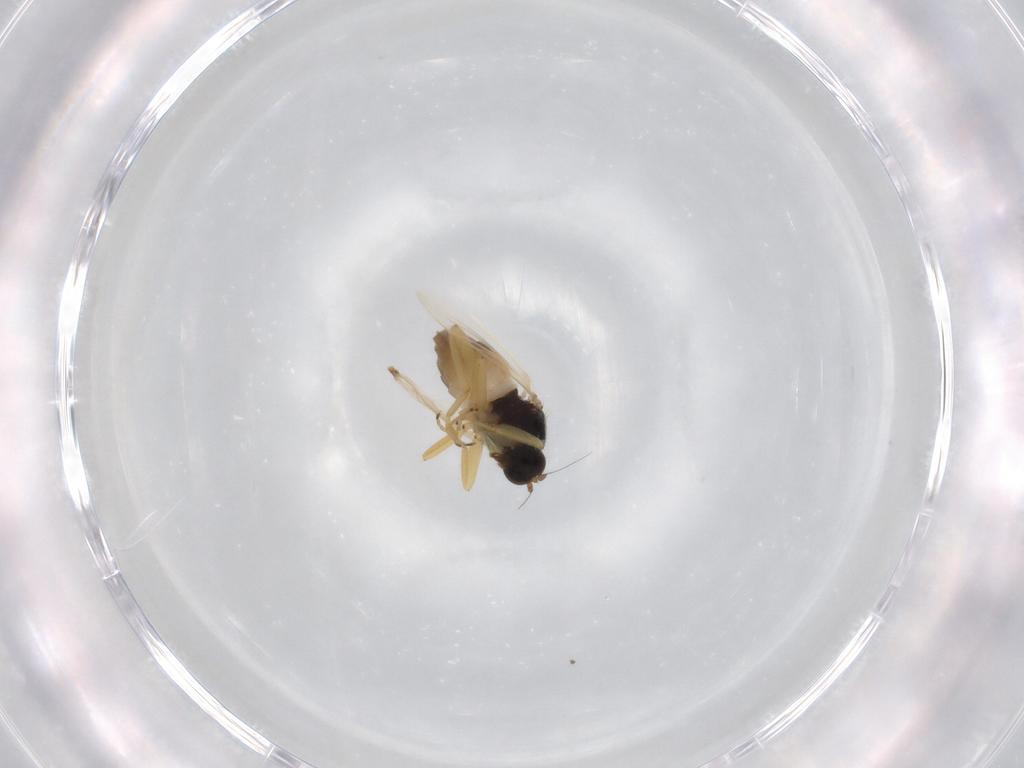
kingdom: Animalia
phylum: Arthropoda
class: Insecta
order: Diptera
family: Hybotidae
